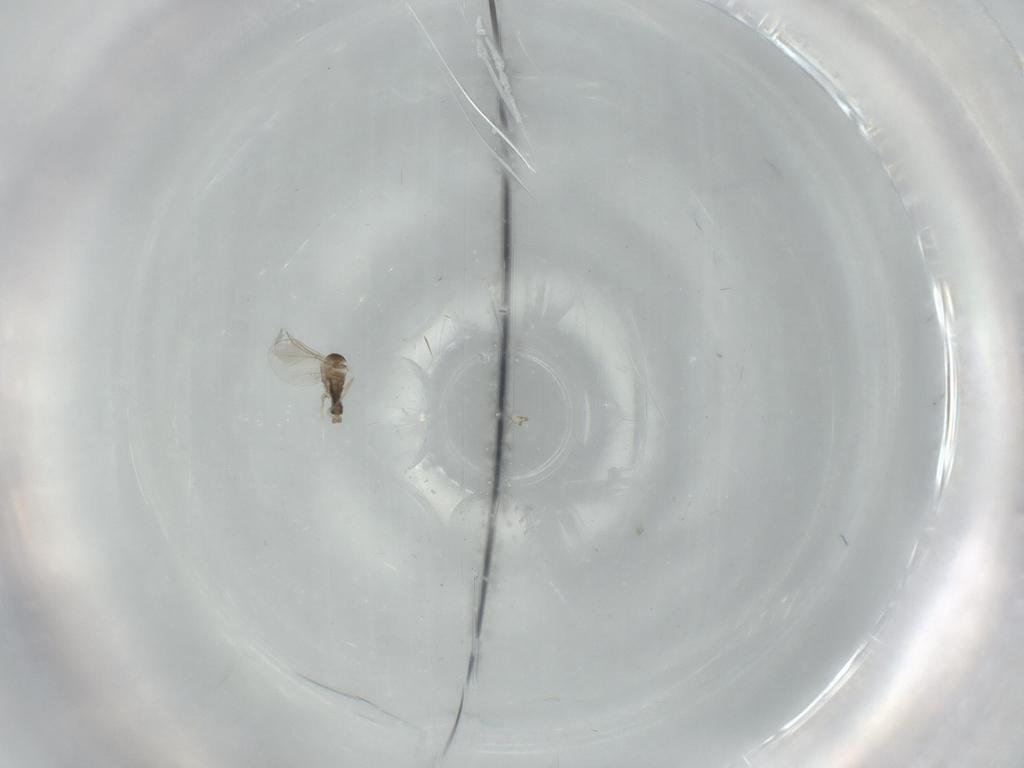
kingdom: Animalia
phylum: Arthropoda
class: Insecta
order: Diptera
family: Cecidomyiidae
